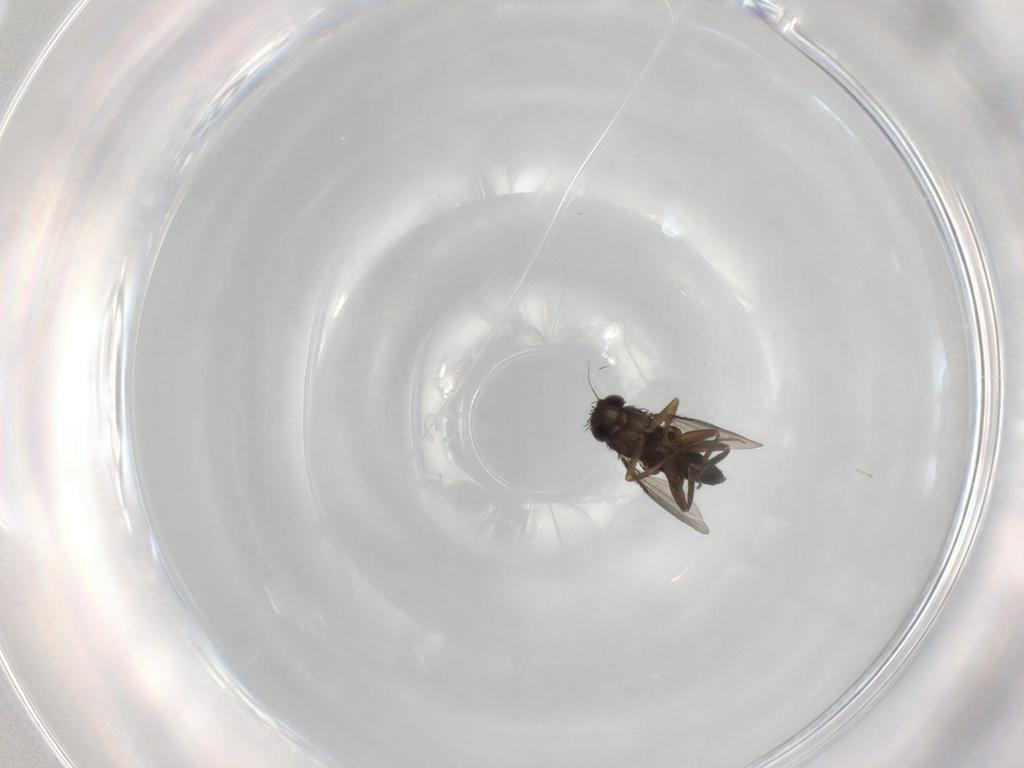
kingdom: Animalia
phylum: Arthropoda
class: Insecta
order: Diptera
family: Phoridae
